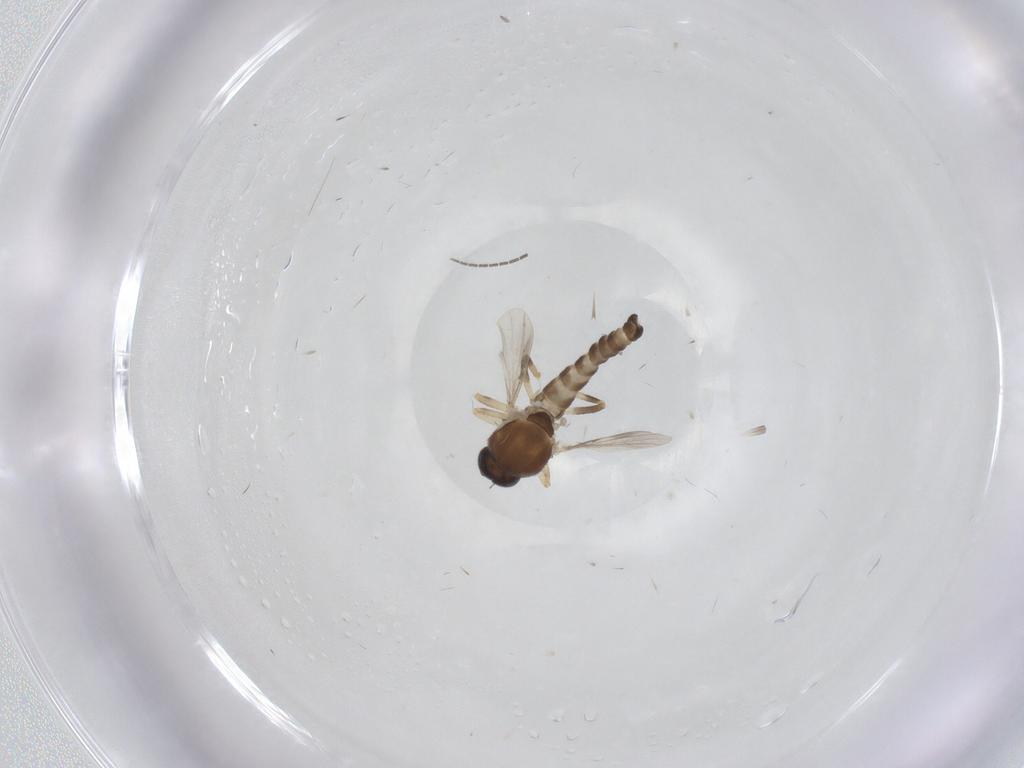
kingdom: Animalia
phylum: Arthropoda
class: Insecta
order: Diptera
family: Psychodidae
